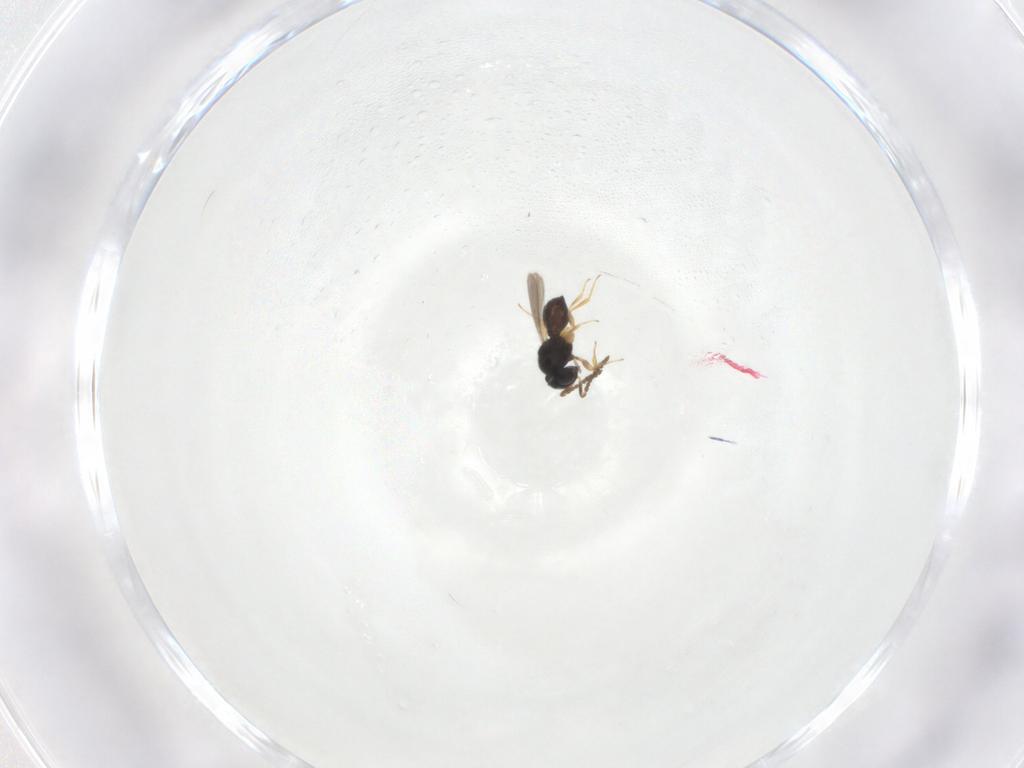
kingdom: Animalia
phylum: Arthropoda
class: Insecta
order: Hymenoptera
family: Scelionidae
